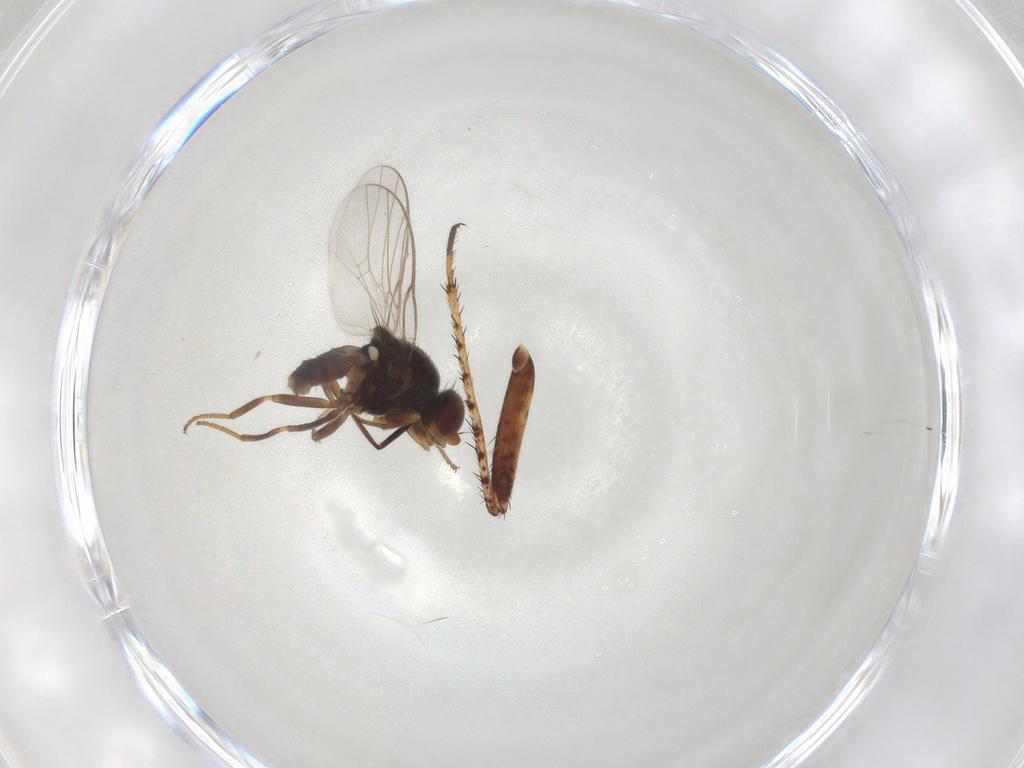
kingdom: Animalia
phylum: Arthropoda
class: Insecta
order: Diptera
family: Chloropidae
